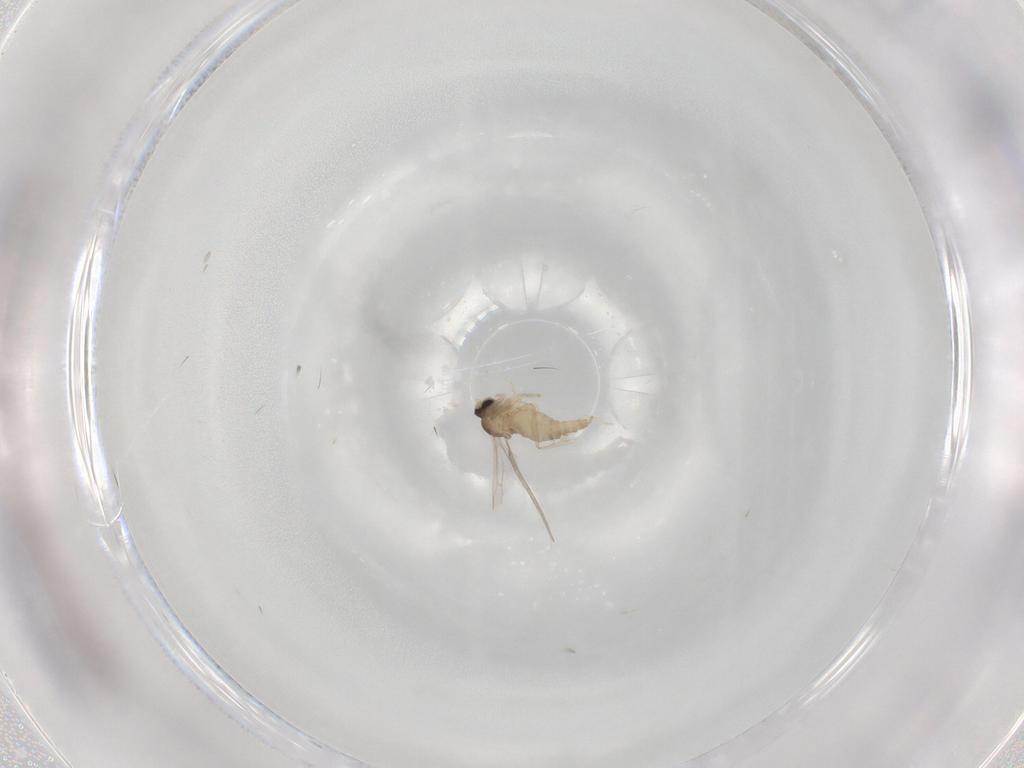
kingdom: Animalia
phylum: Arthropoda
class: Insecta
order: Diptera
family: Cecidomyiidae
